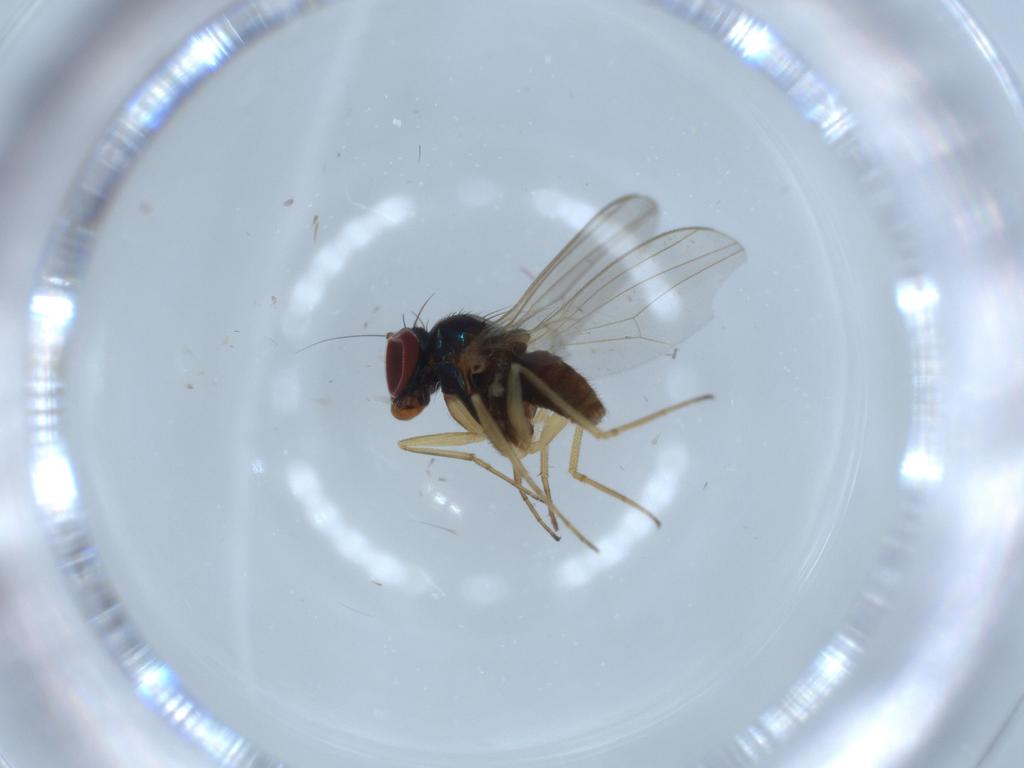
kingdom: Animalia
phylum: Arthropoda
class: Insecta
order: Diptera
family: Dolichopodidae
